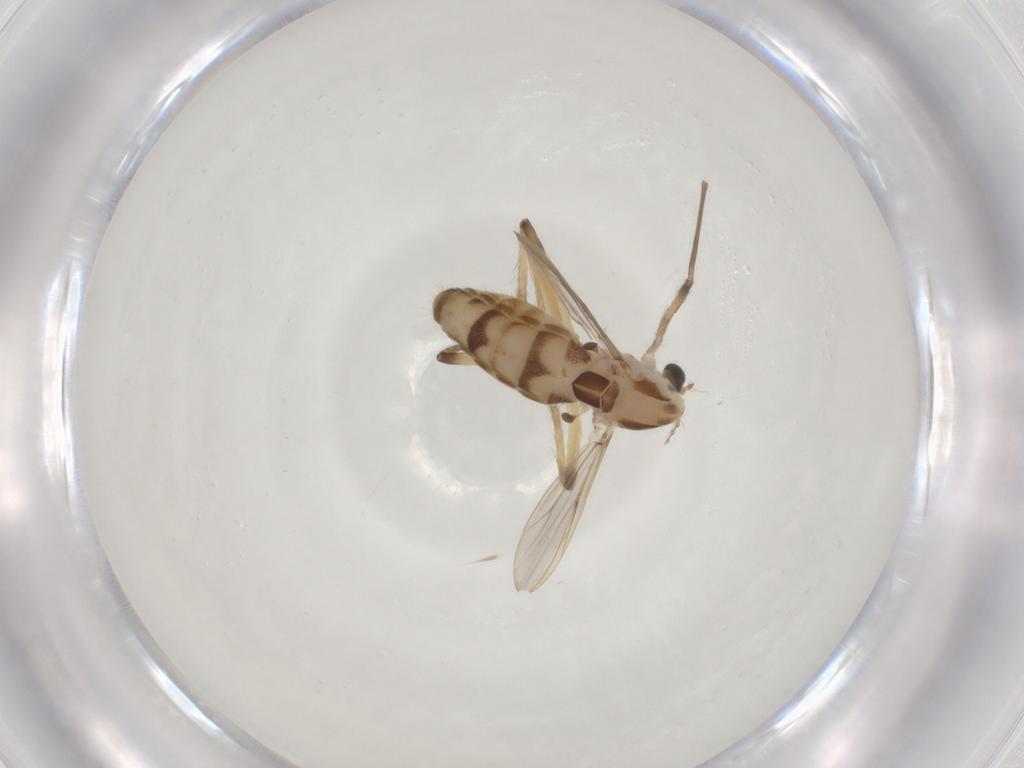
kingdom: Animalia
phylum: Arthropoda
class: Insecta
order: Diptera
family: Chironomidae
